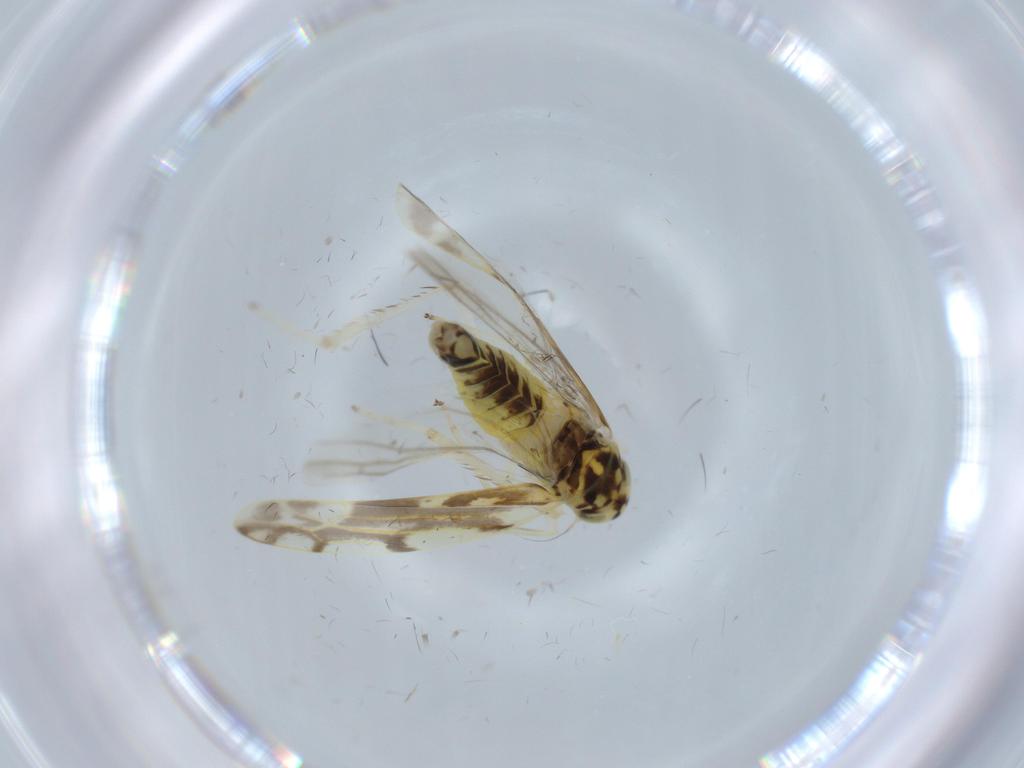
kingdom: Animalia
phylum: Arthropoda
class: Insecta
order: Hemiptera
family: Cicadellidae
